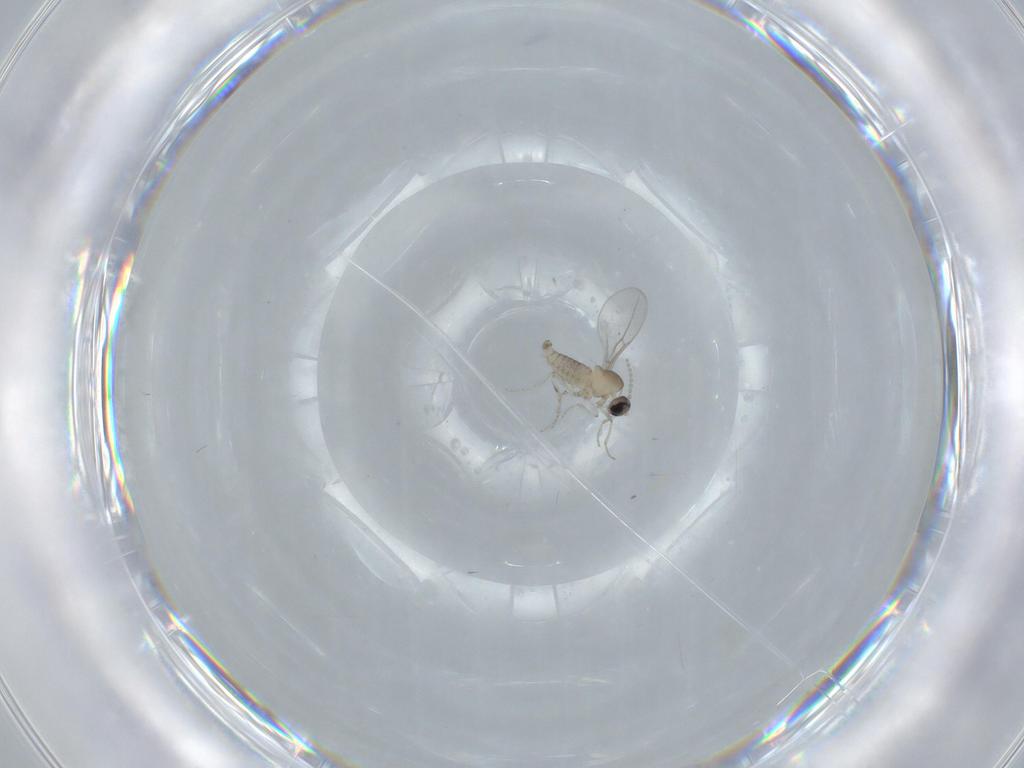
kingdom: Animalia
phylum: Arthropoda
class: Insecta
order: Diptera
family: Cecidomyiidae
